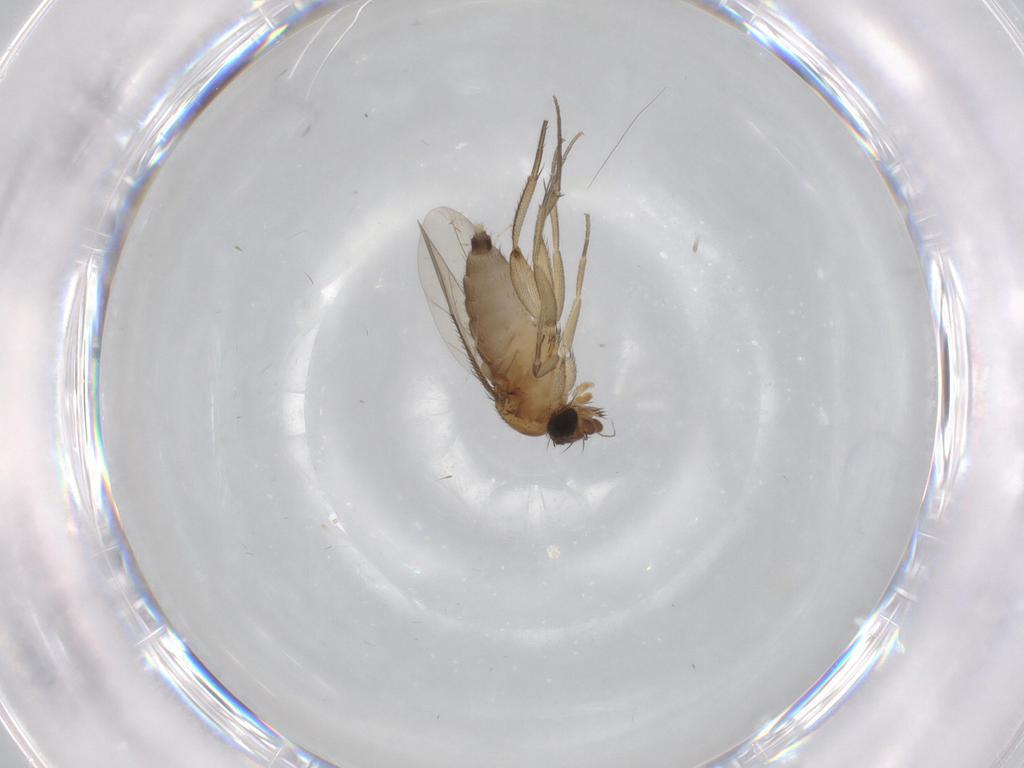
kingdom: Animalia
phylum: Arthropoda
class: Insecta
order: Diptera
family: Phoridae
